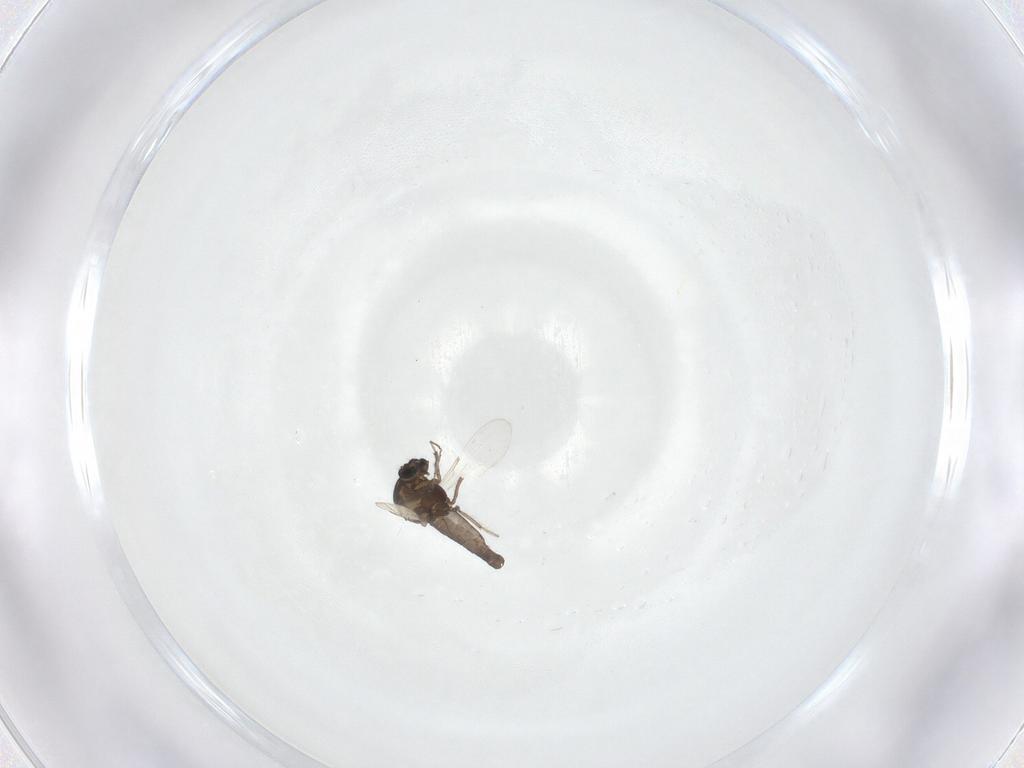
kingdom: Animalia
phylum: Arthropoda
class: Insecta
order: Diptera
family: Ceratopogonidae
